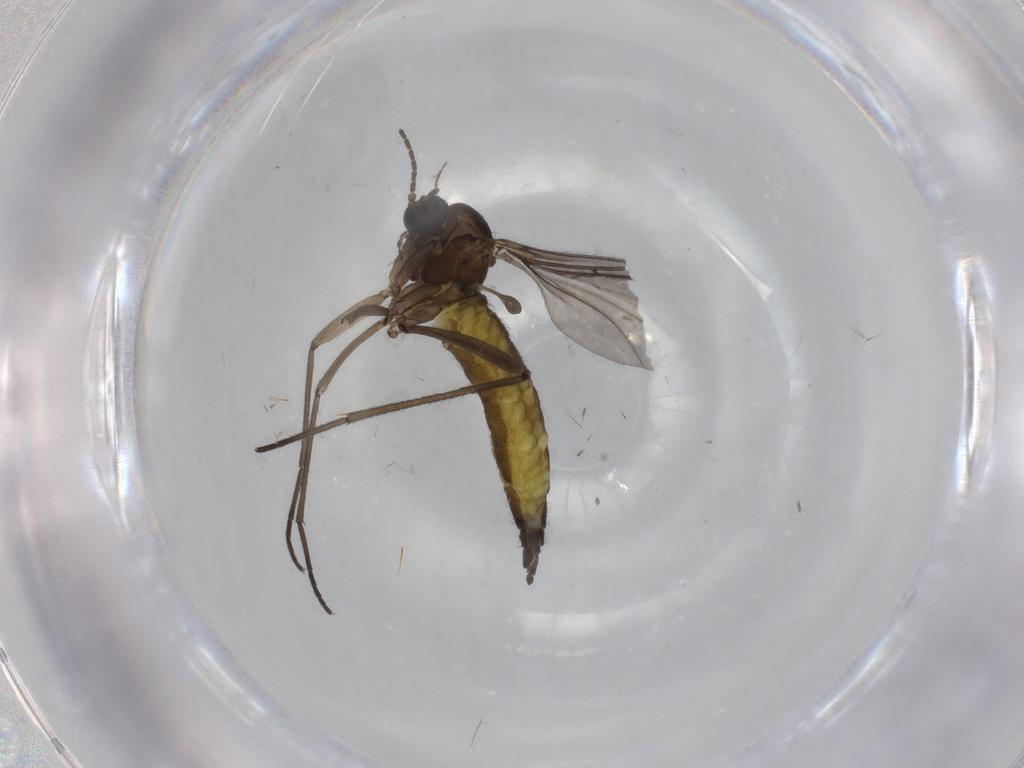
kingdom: Animalia
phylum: Arthropoda
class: Insecta
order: Diptera
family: Sciaridae
